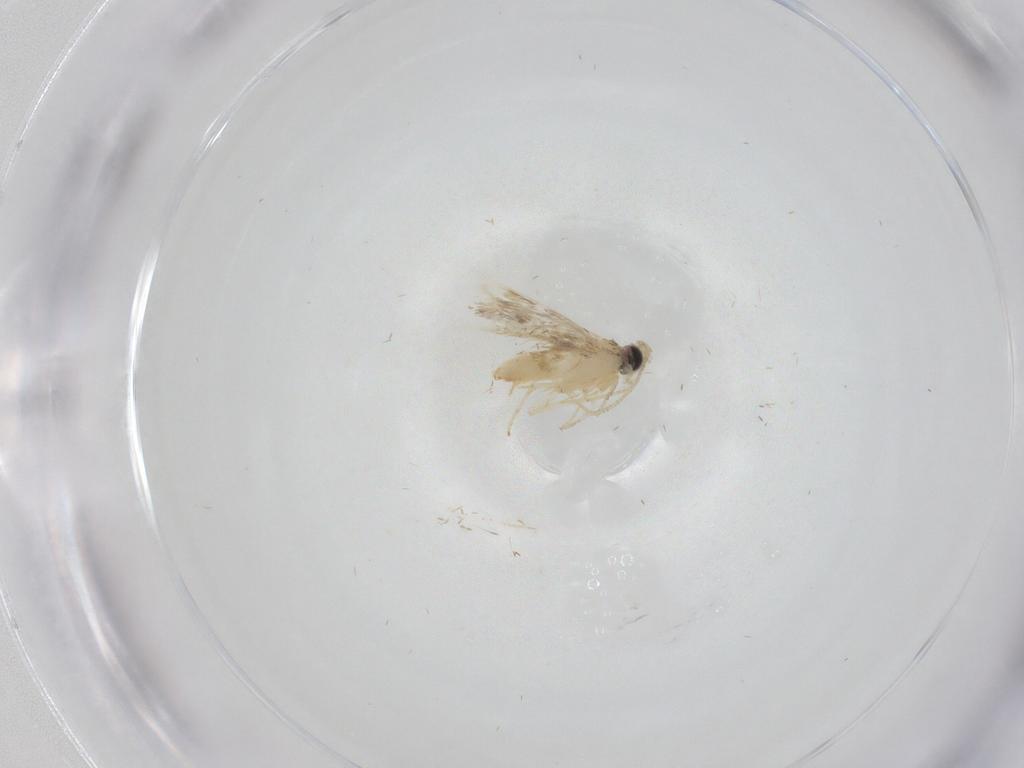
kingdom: Animalia
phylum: Arthropoda
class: Insecta
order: Lepidoptera
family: Nepticulidae
